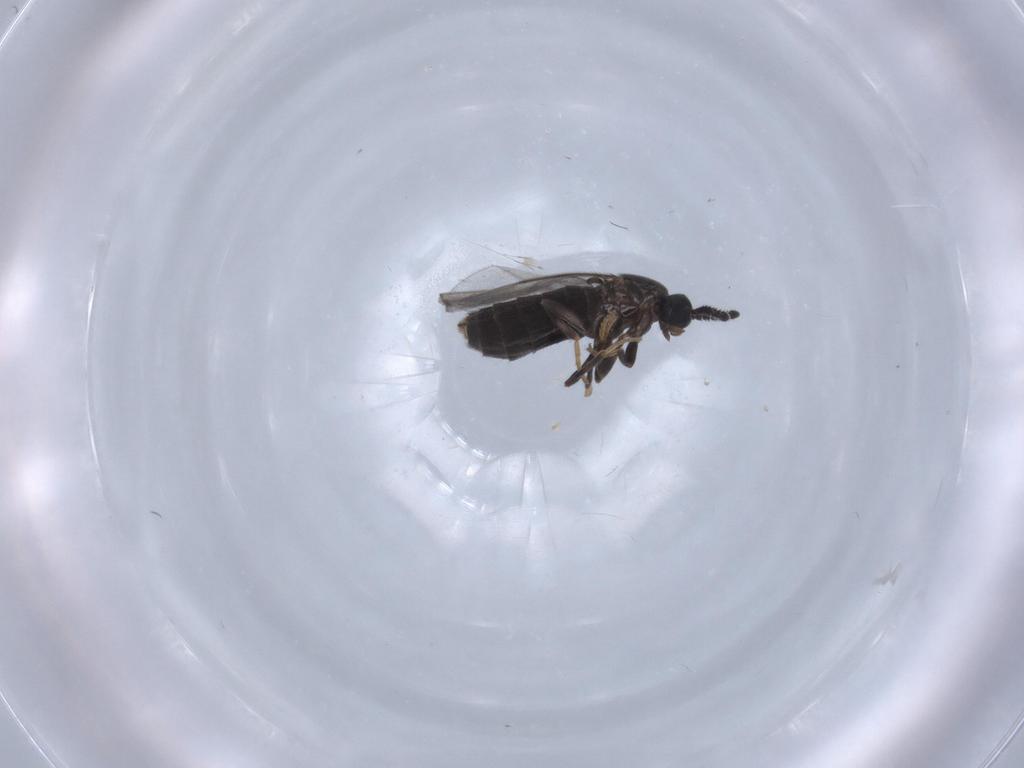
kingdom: Animalia
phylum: Arthropoda
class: Insecta
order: Diptera
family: Scatopsidae
